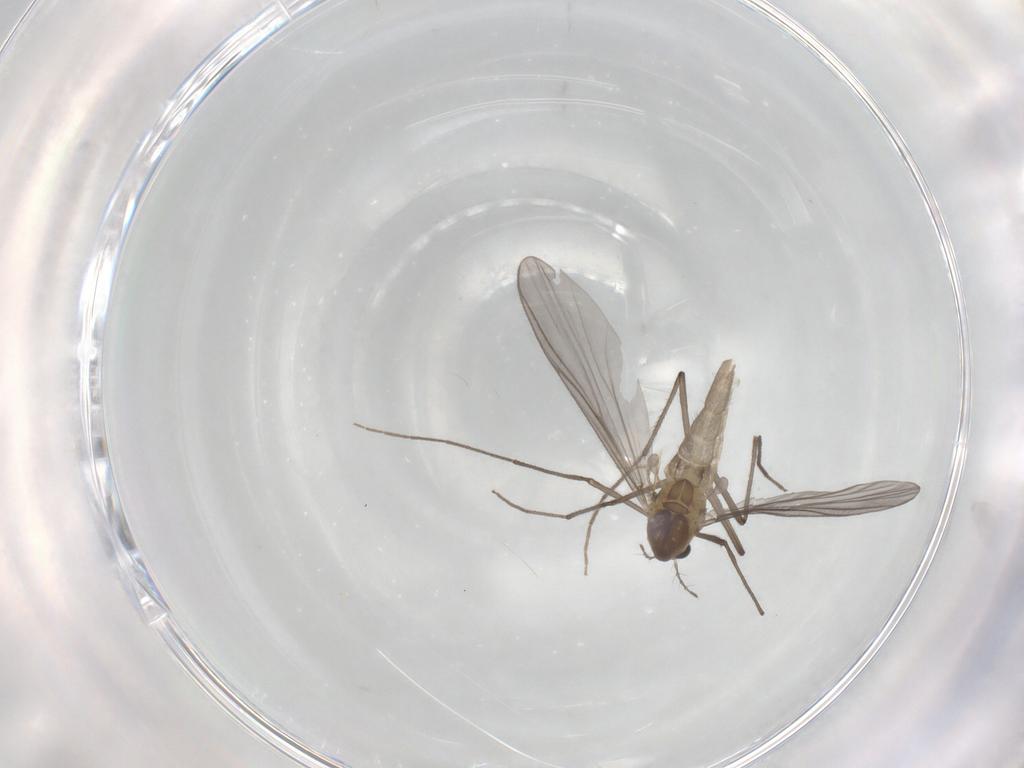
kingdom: Animalia
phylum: Arthropoda
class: Insecta
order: Diptera
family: Chironomidae
